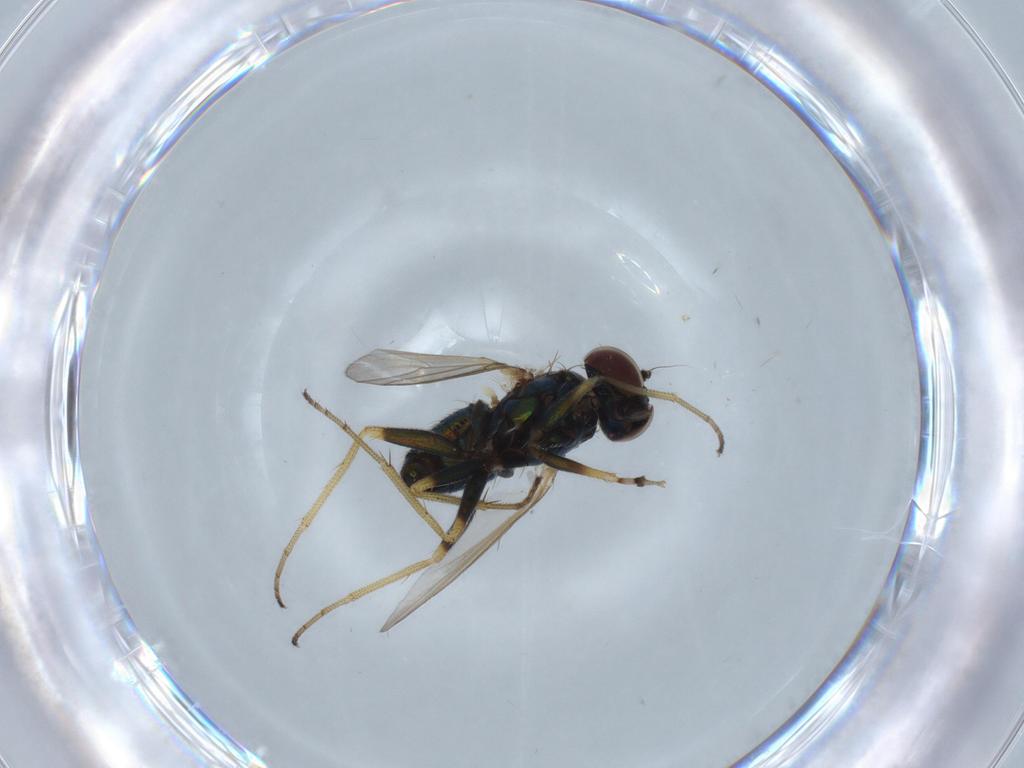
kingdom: Animalia
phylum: Arthropoda
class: Insecta
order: Diptera
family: Dolichopodidae
